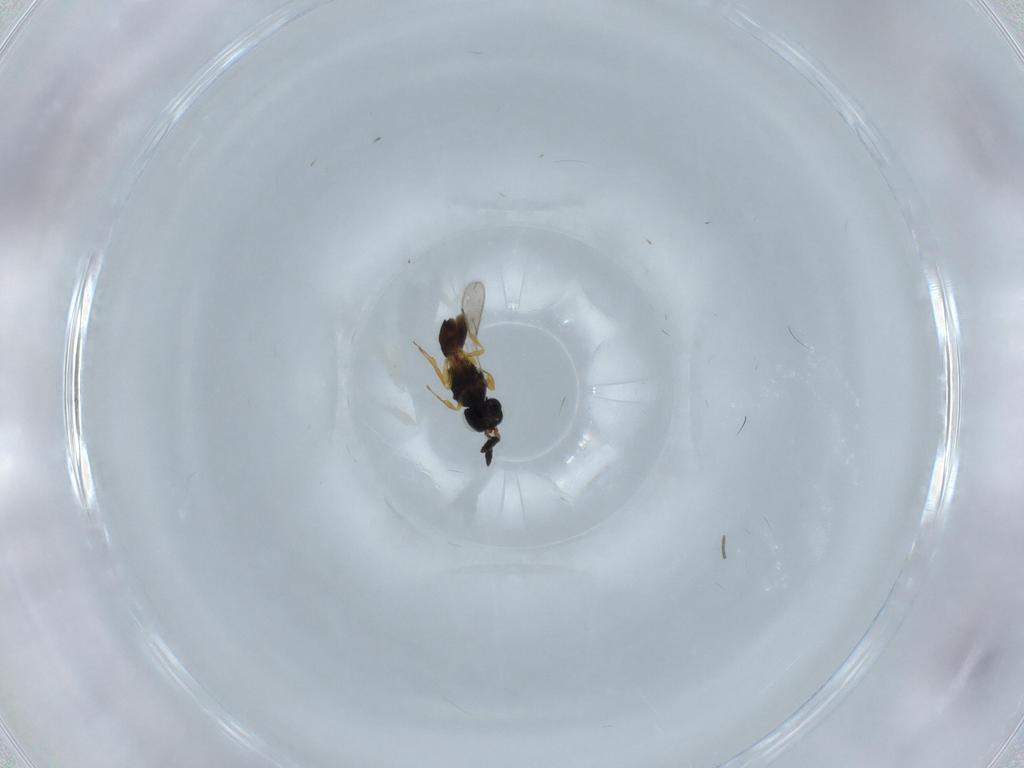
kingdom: Animalia
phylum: Arthropoda
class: Insecta
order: Hymenoptera
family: Scelionidae
